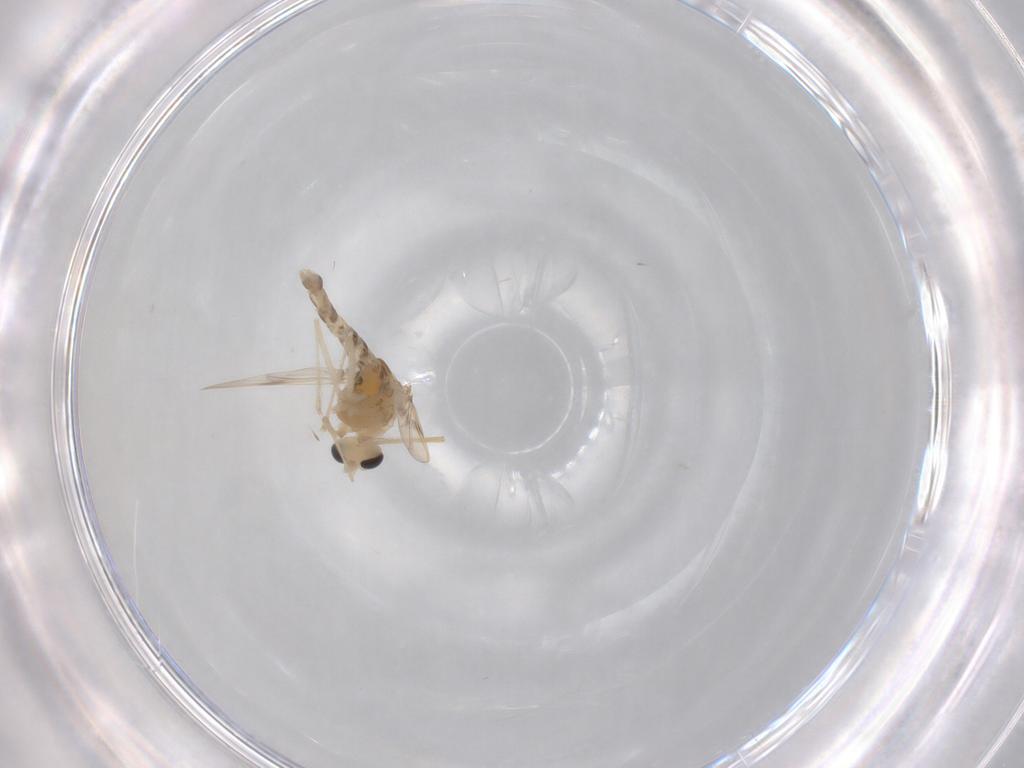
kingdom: Animalia
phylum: Arthropoda
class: Insecta
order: Diptera
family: Chironomidae
